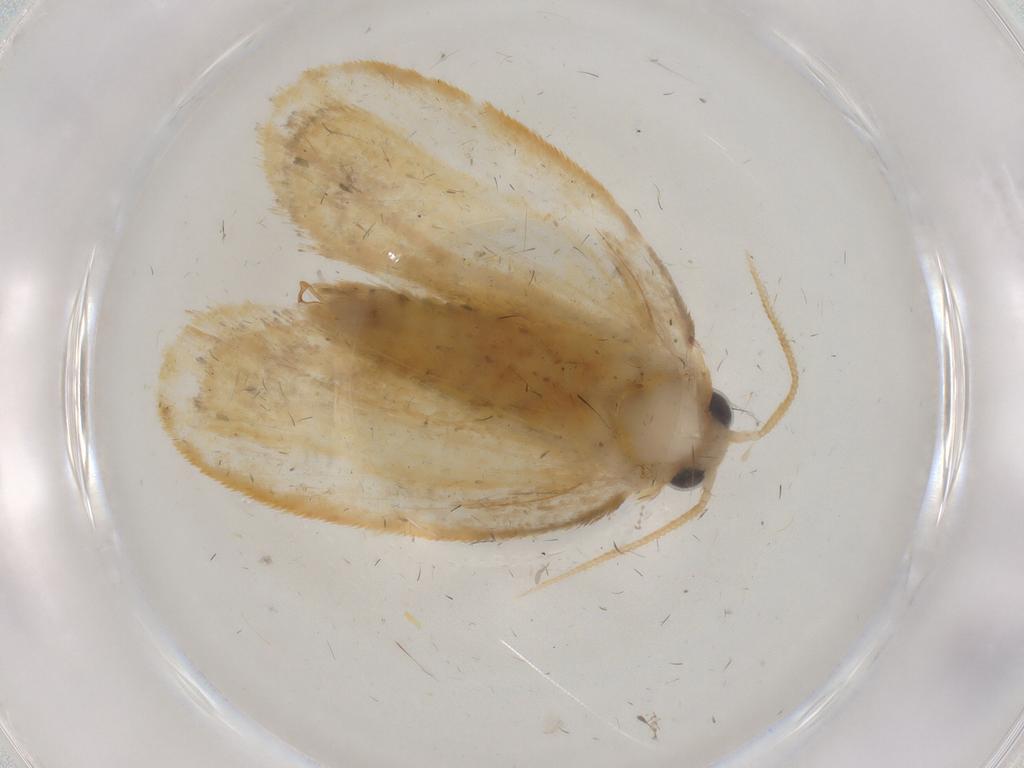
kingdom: Animalia
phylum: Arthropoda
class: Insecta
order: Lepidoptera
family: Psychidae
